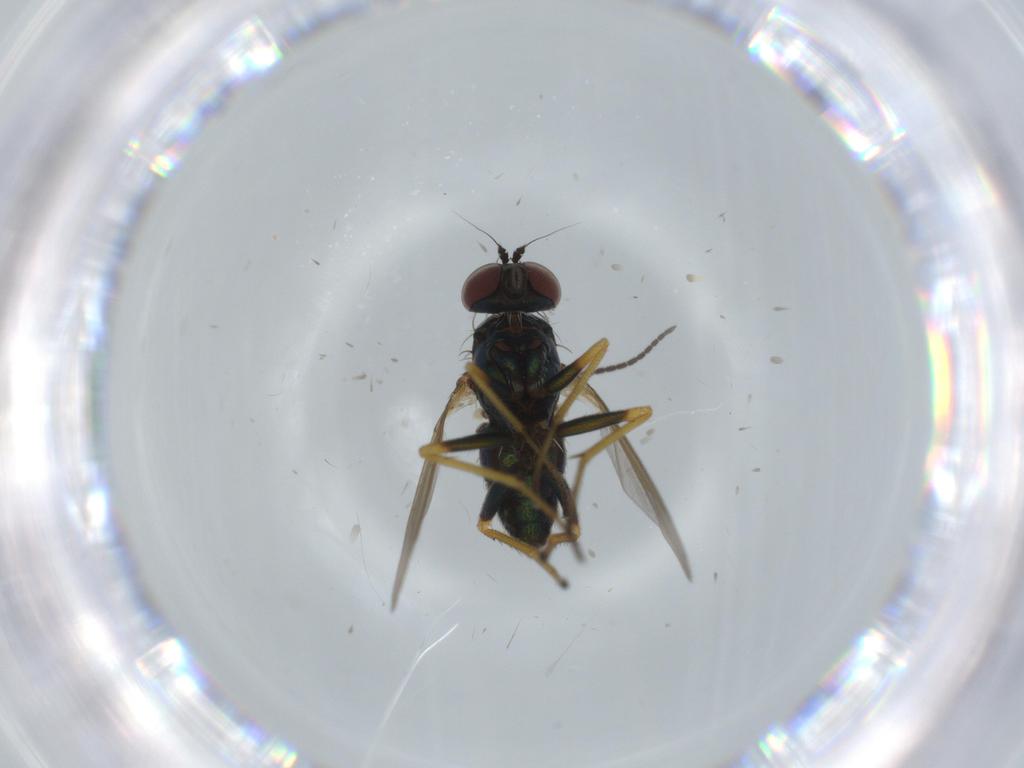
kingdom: Animalia
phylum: Arthropoda
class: Insecta
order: Diptera
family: Dolichopodidae
